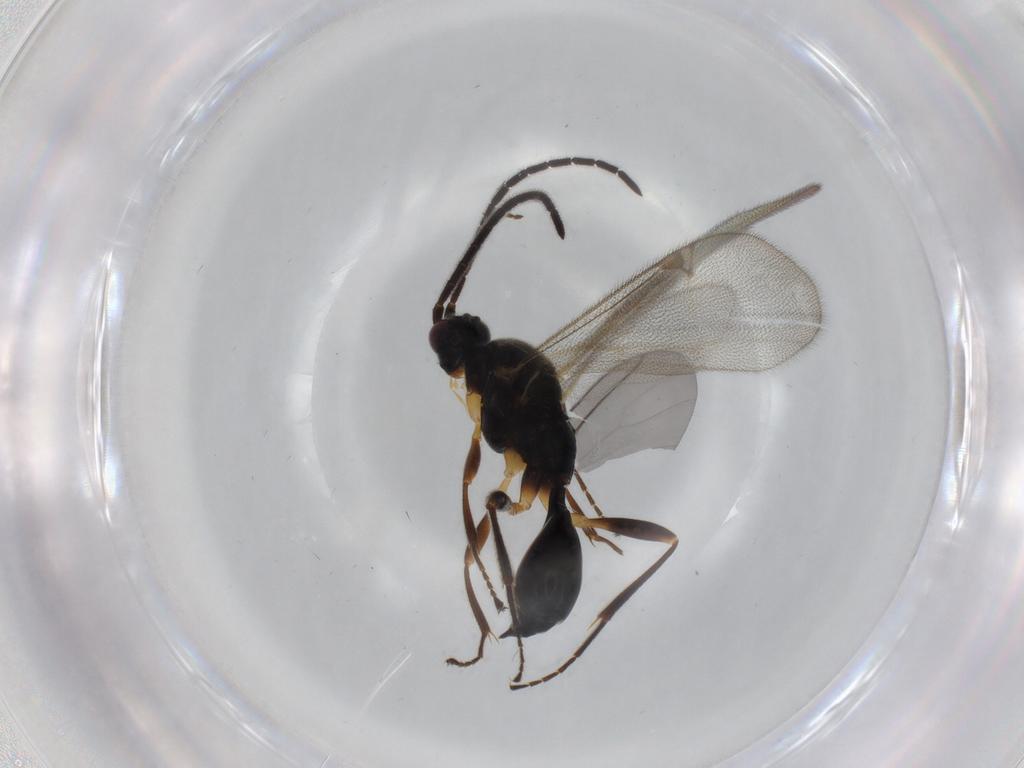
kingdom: Animalia
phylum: Arthropoda
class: Insecta
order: Hymenoptera
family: Proctotrupidae
